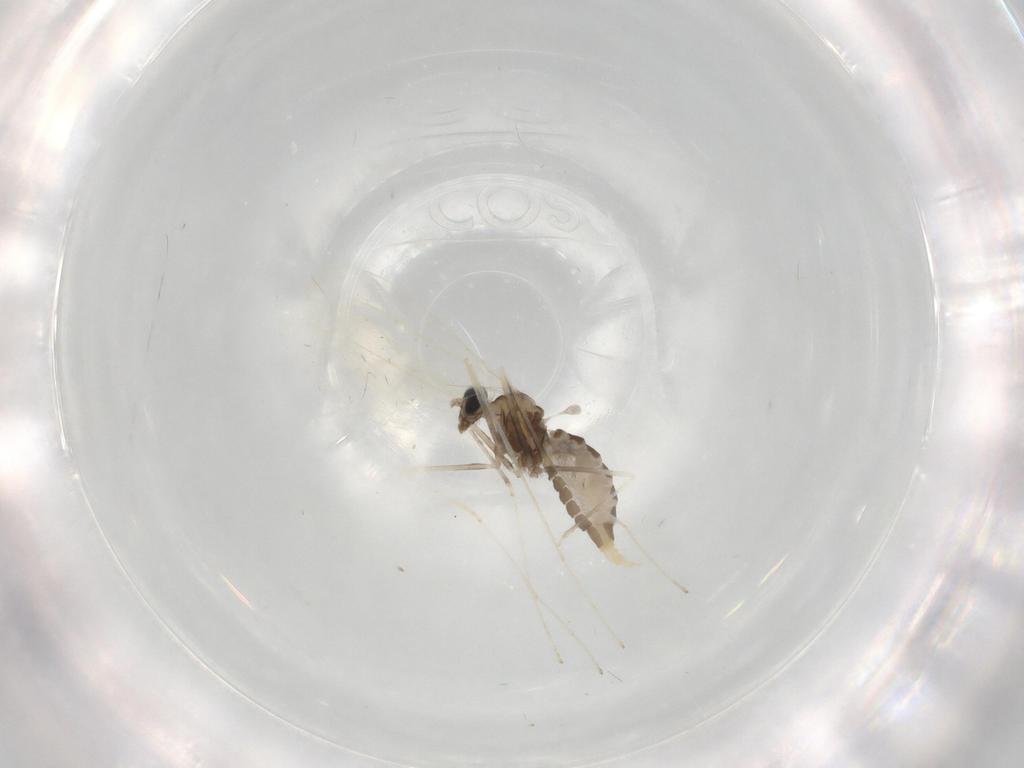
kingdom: Animalia
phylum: Arthropoda
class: Insecta
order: Diptera
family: Cecidomyiidae
